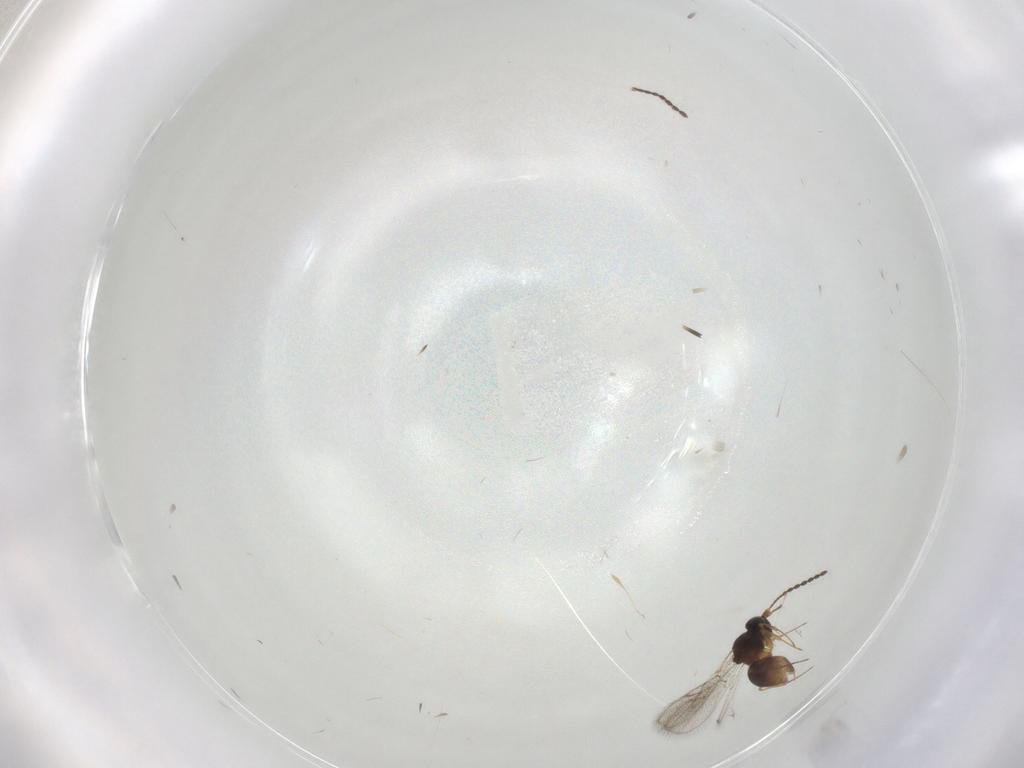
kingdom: Animalia
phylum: Arthropoda
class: Insecta
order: Hymenoptera
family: Figitidae
